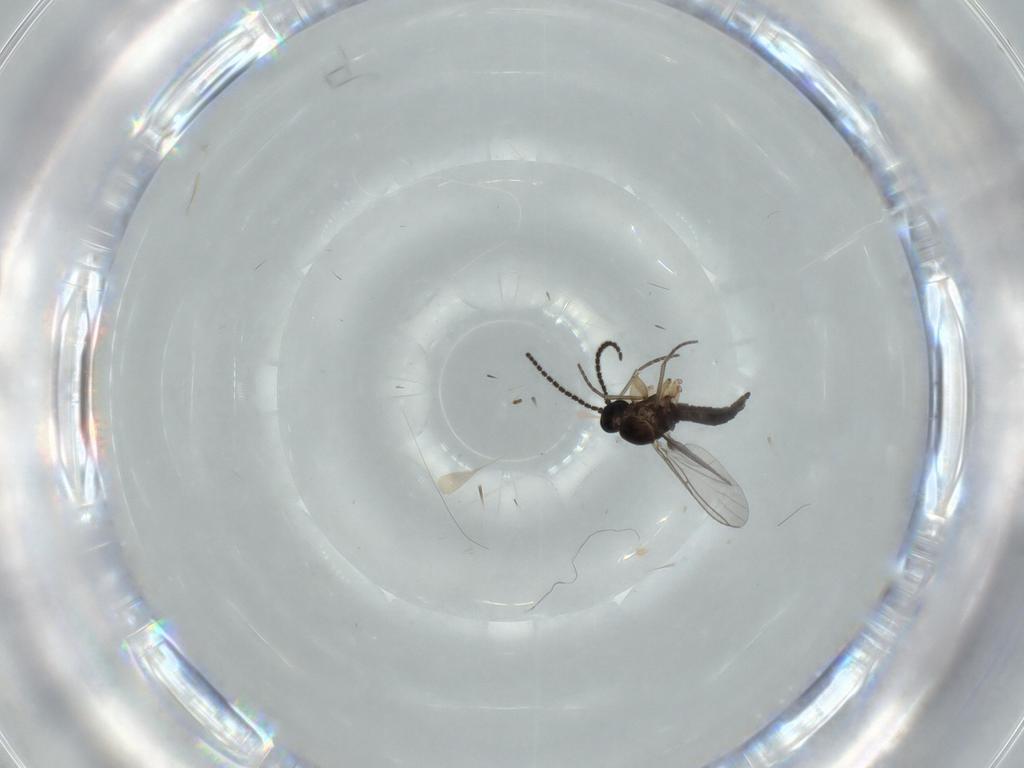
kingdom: Animalia
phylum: Arthropoda
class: Insecta
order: Diptera
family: Sciaridae
